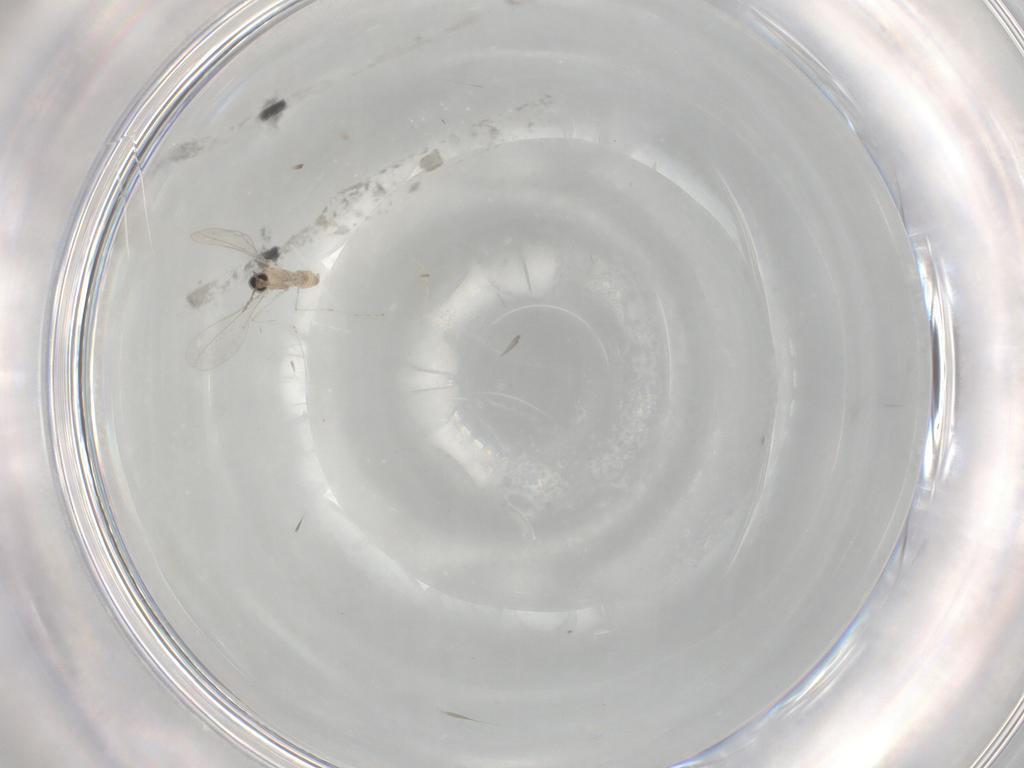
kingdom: Animalia
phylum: Arthropoda
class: Insecta
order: Diptera
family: Cecidomyiidae
